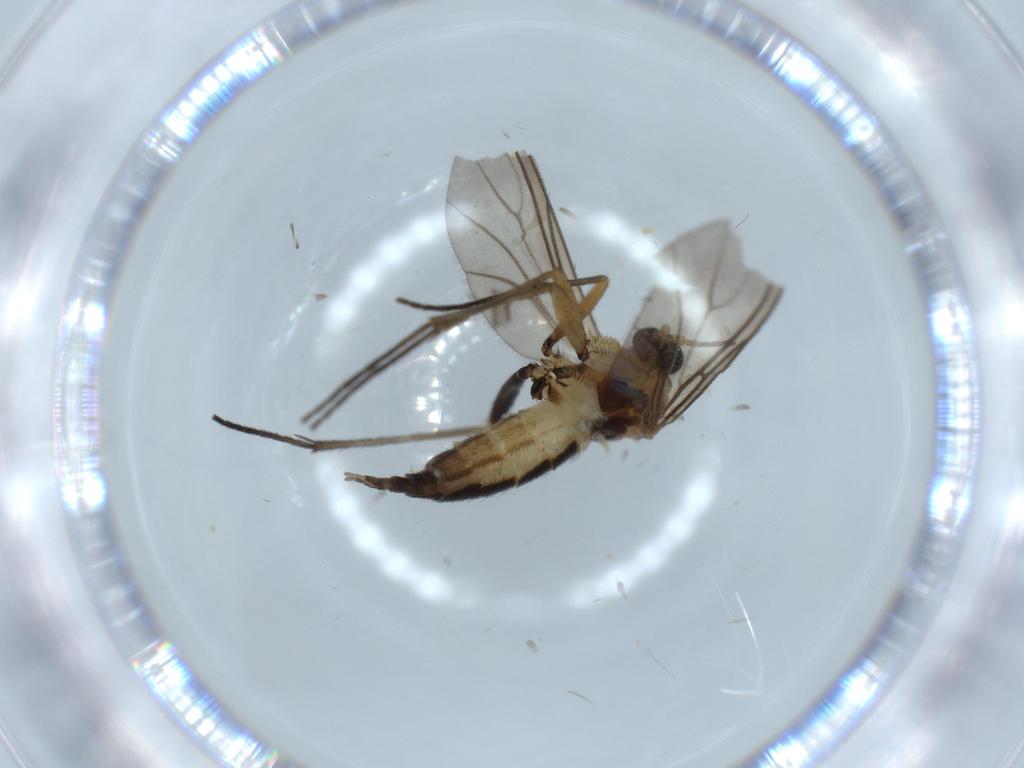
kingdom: Animalia
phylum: Arthropoda
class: Insecta
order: Diptera
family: Sciaridae
